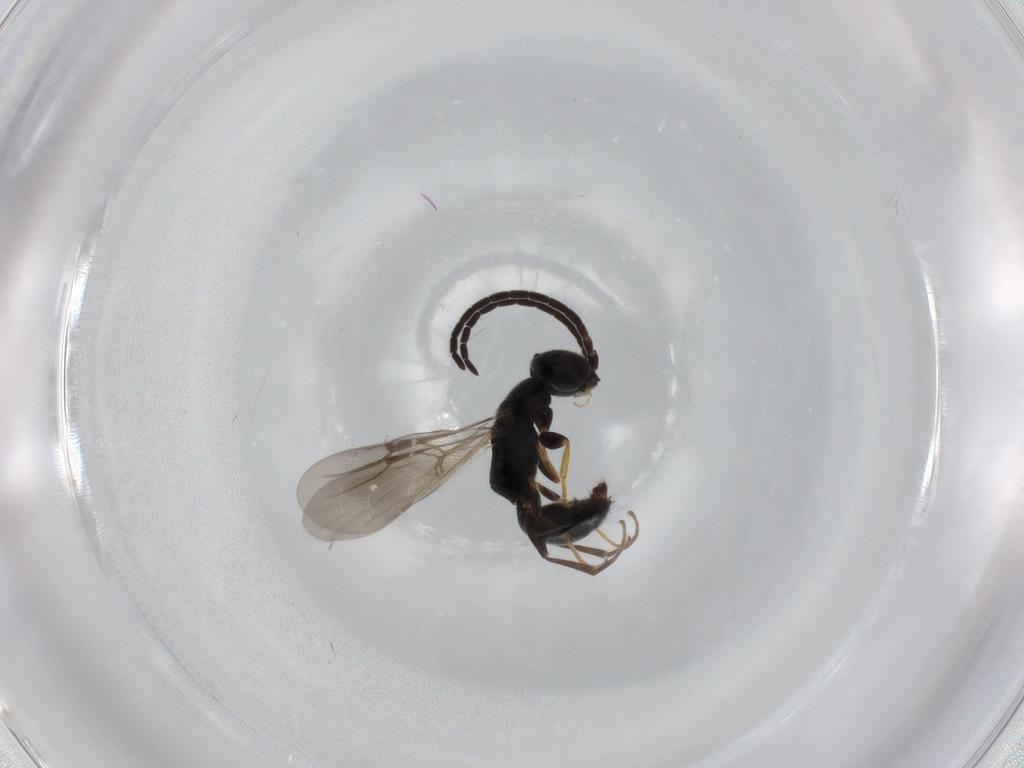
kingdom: Animalia
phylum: Arthropoda
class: Insecta
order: Hymenoptera
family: Bethylidae
